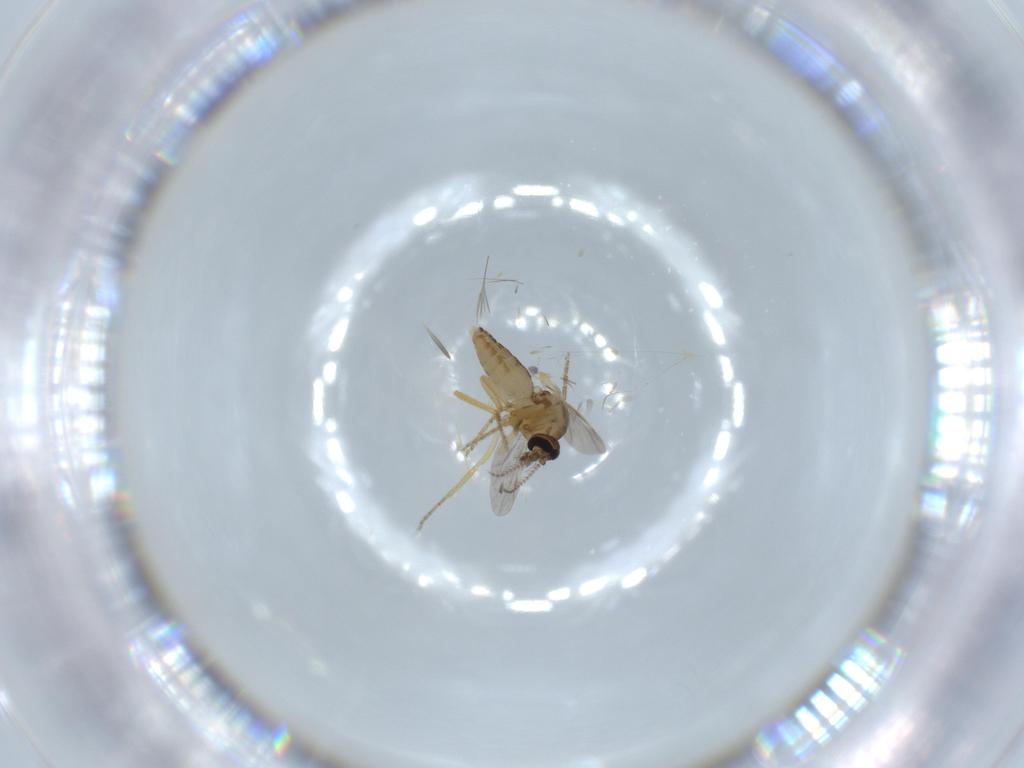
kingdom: Animalia
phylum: Arthropoda
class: Insecta
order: Diptera
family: Ceratopogonidae
